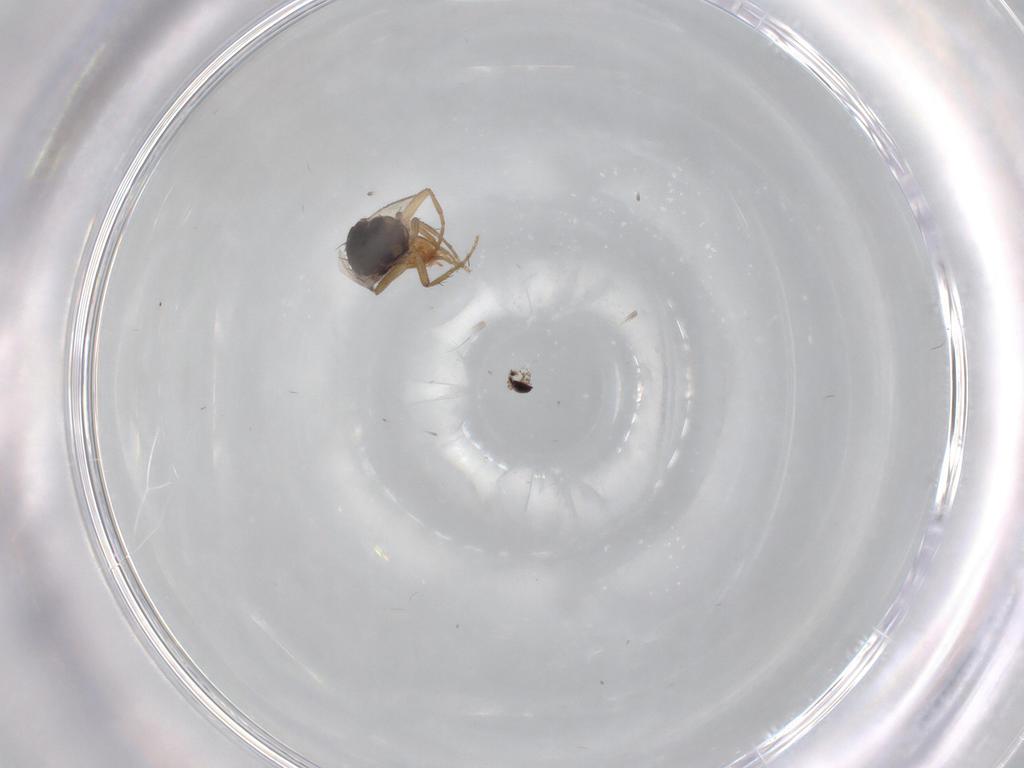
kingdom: Animalia
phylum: Arthropoda
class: Insecta
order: Diptera
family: Sphaeroceridae
